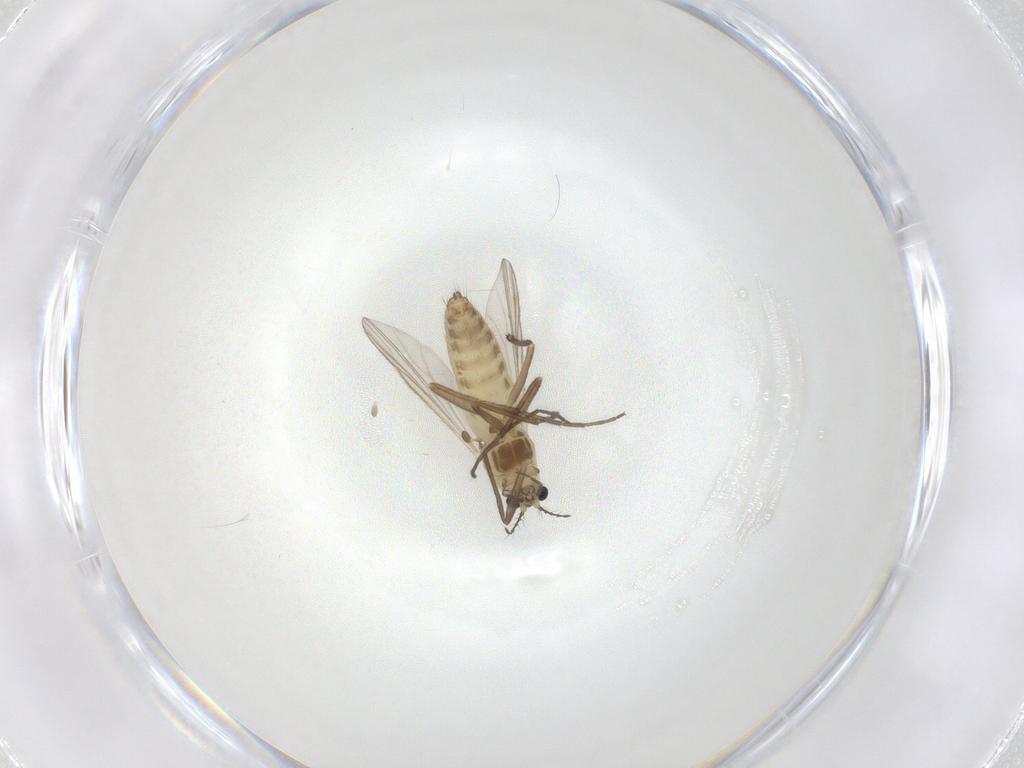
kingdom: Animalia
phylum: Arthropoda
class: Insecta
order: Diptera
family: Chironomidae
